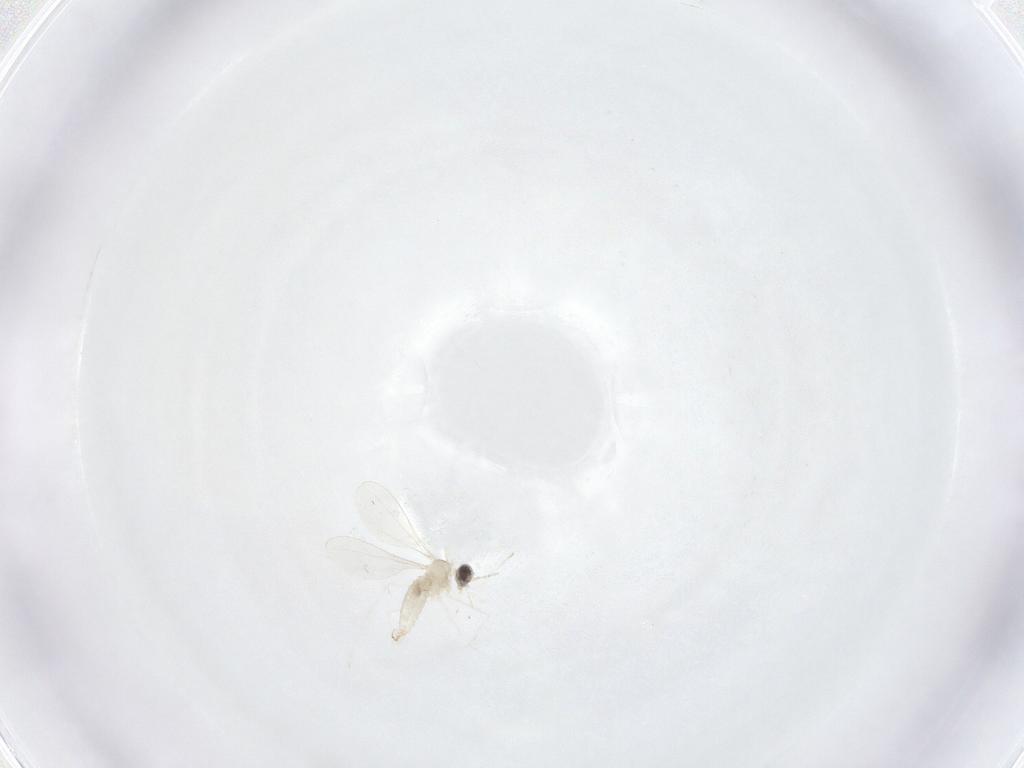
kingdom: Animalia
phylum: Arthropoda
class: Insecta
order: Diptera
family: Cecidomyiidae
